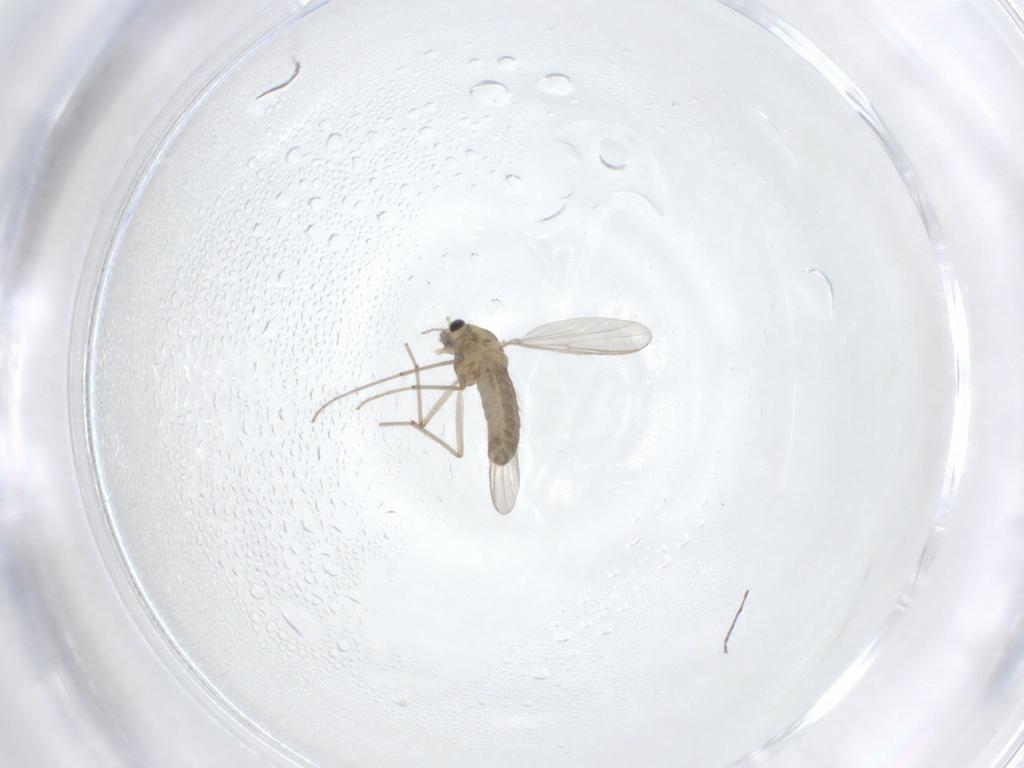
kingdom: Animalia
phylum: Arthropoda
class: Insecta
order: Diptera
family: Chironomidae
